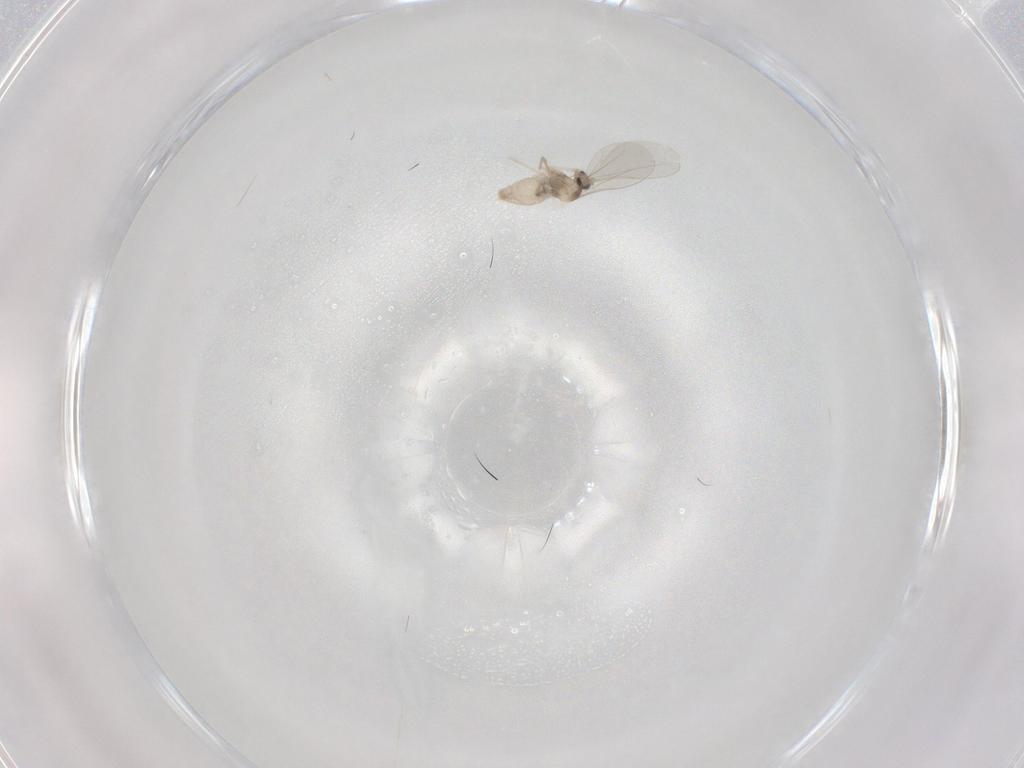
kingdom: Animalia
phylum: Arthropoda
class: Insecta
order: Diptera
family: Cecidomyiidae
